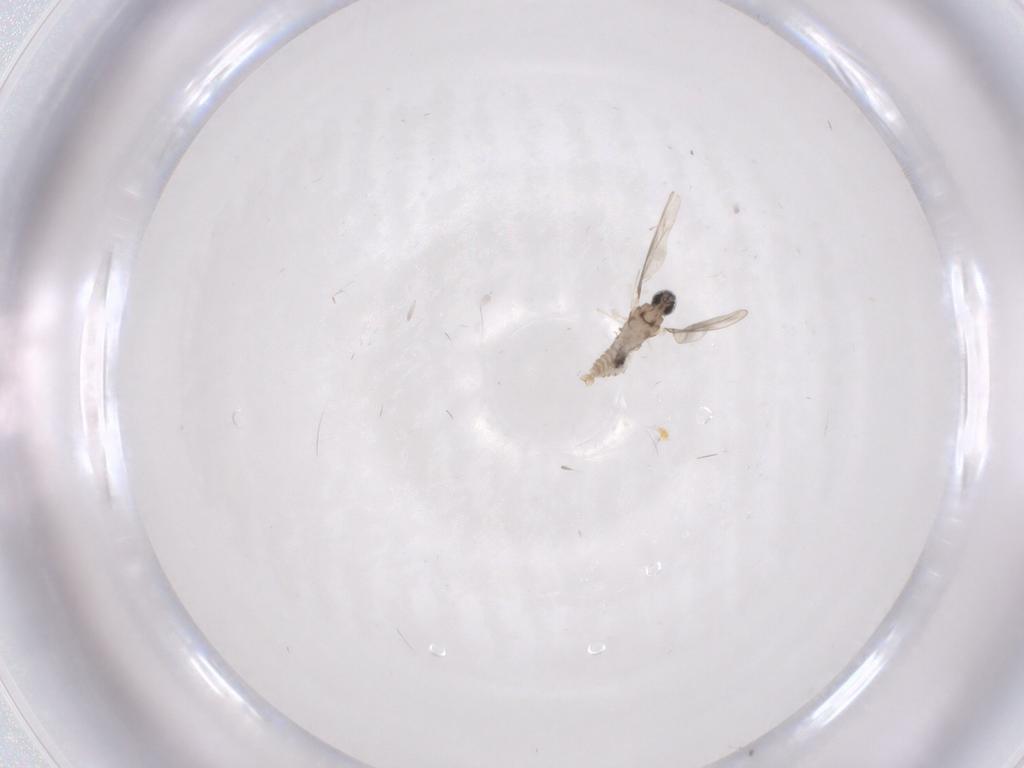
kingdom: Animalia
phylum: Arthropoda
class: Insecta
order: Diptera
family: Cecidomyiidae
